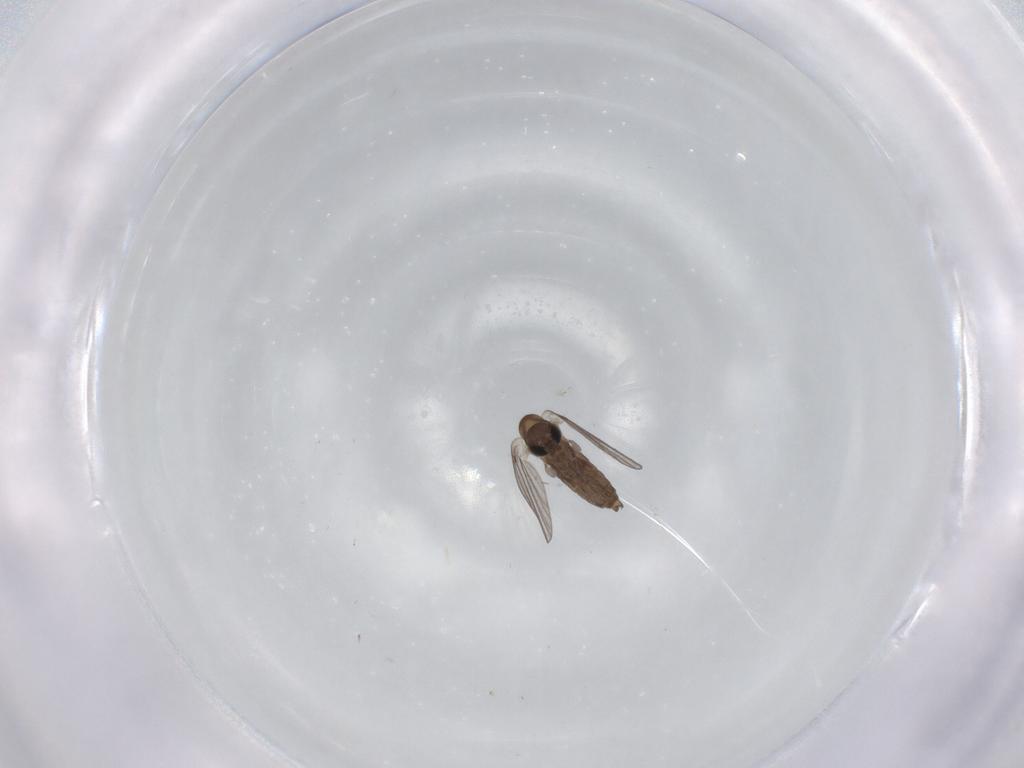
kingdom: Animalia
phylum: Arthropoda
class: Insecta
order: Diptera
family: Ceratopogonidae
